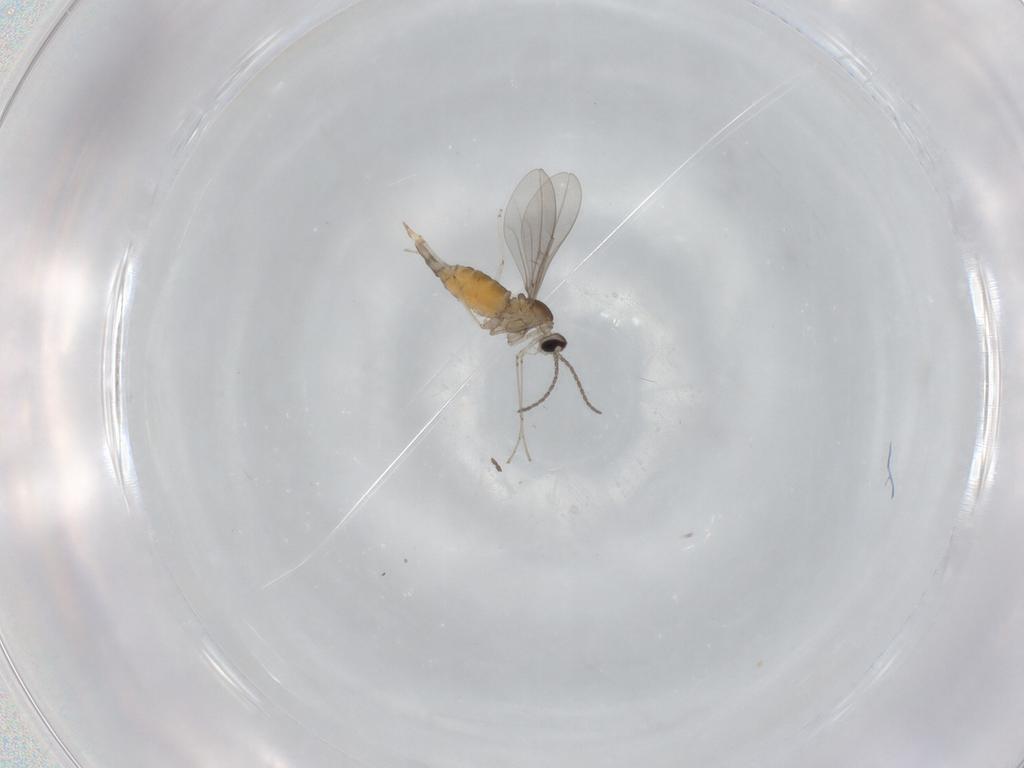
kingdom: Animalia
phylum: Arthropoda
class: Insecta
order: Diptera
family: Cecidomyiidae
